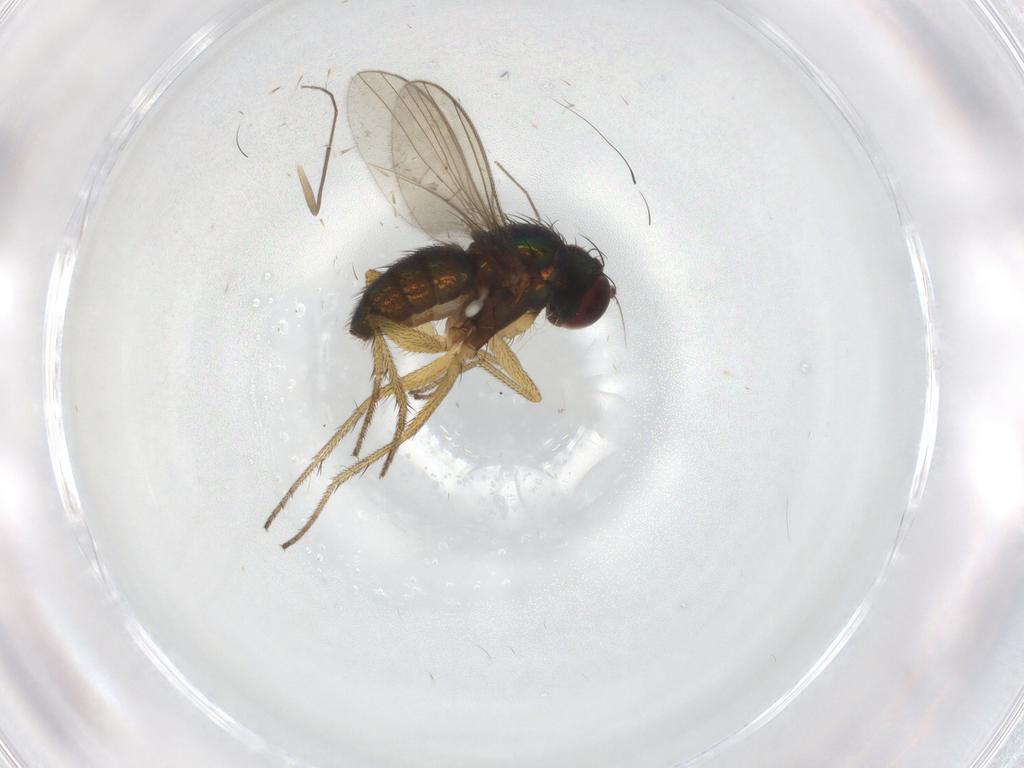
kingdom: Animalia
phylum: Arthropoda
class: Insecta
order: Diptera
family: Chironomidae
